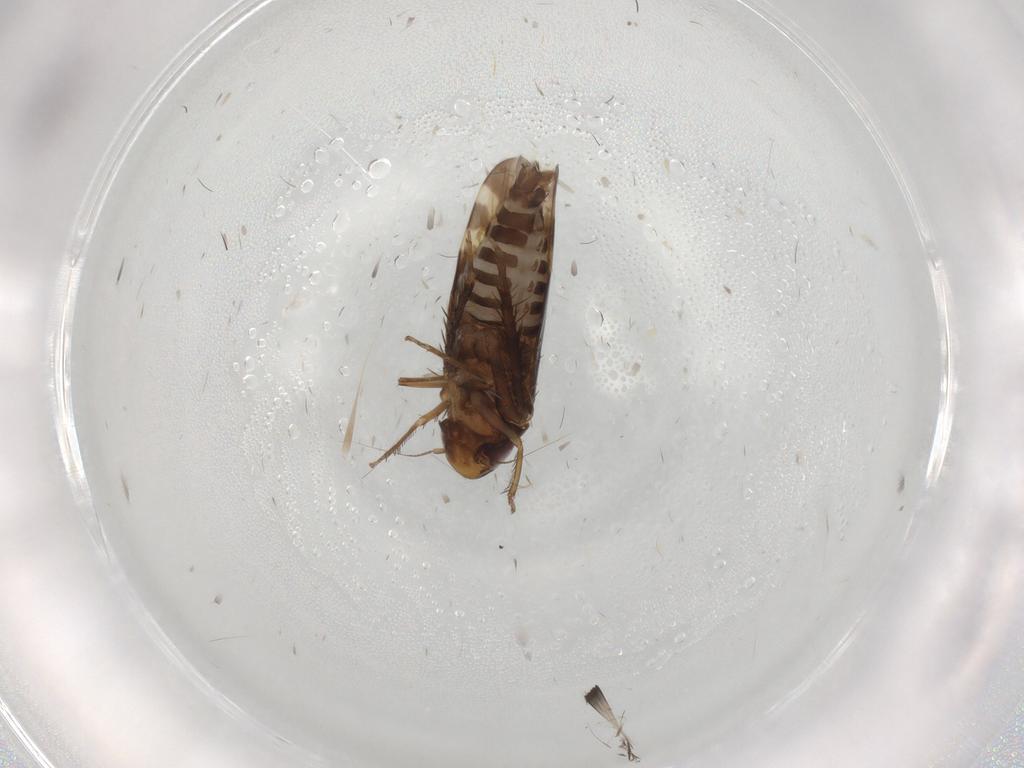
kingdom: Animalia
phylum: Arthropoda
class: Insecta
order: Hemiptera
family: Cicadellidae
